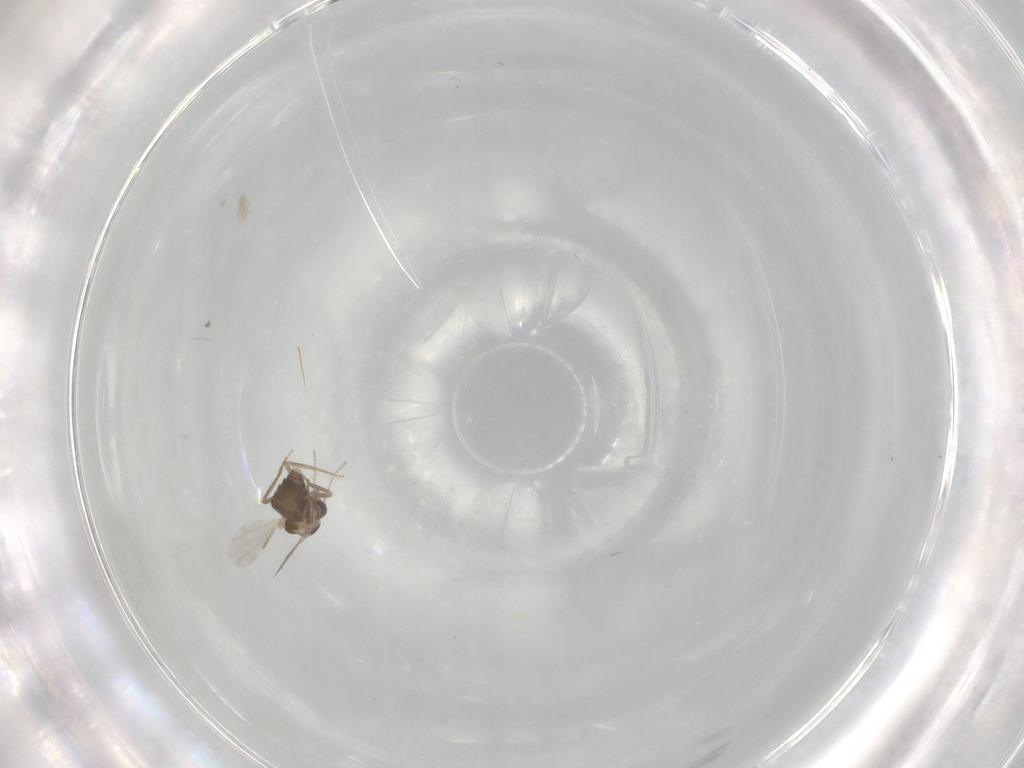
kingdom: Animalia
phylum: Arthropoda
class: Insecta
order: Diptera
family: Ceratopogonidae
